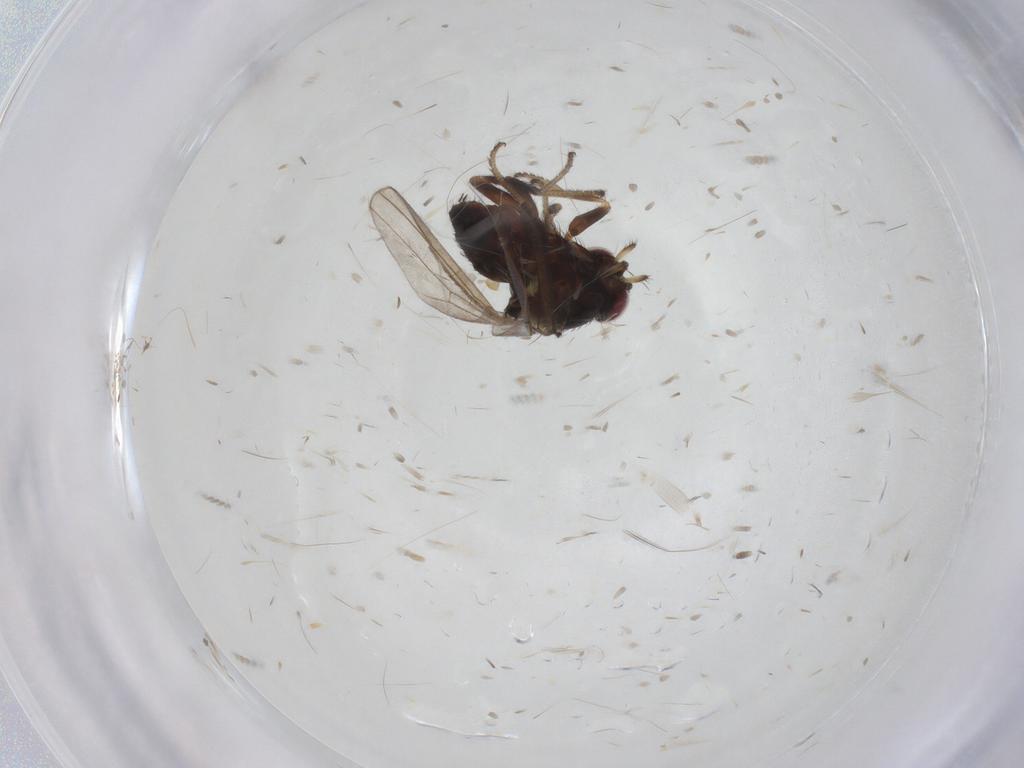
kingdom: Animalia
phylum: Arthropoda
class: Insecta
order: Diptera
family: Milichiidae
